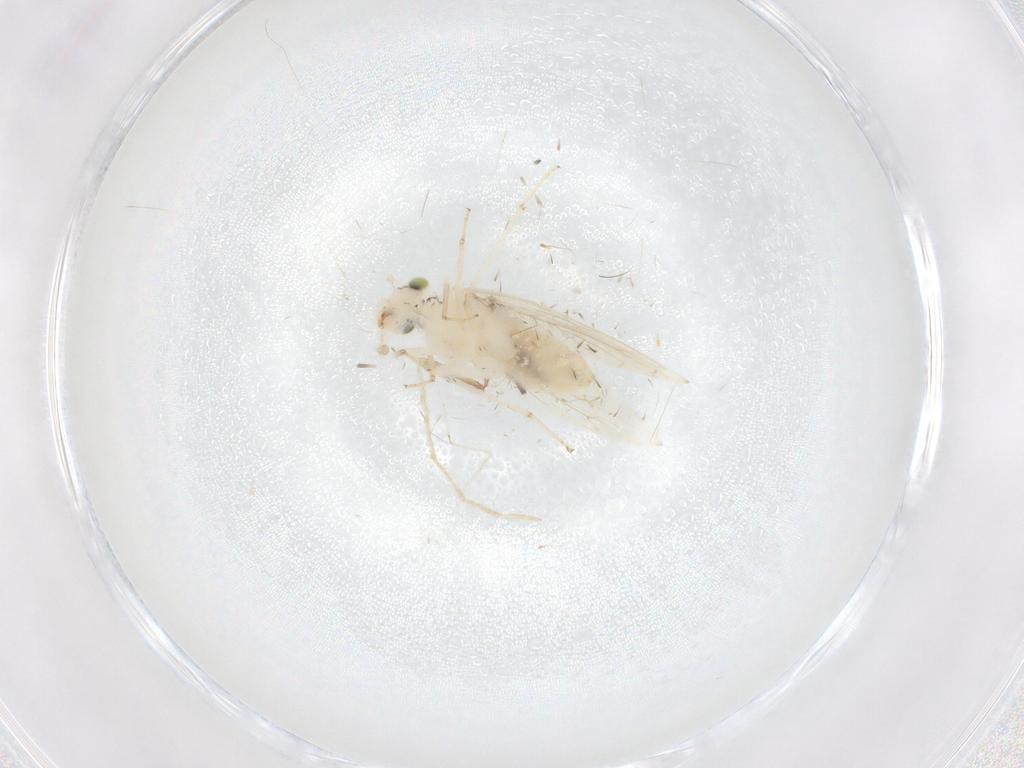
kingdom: Animalia
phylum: Arthropoda
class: Insecta
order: Psocodea
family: Lepidopsocidae
